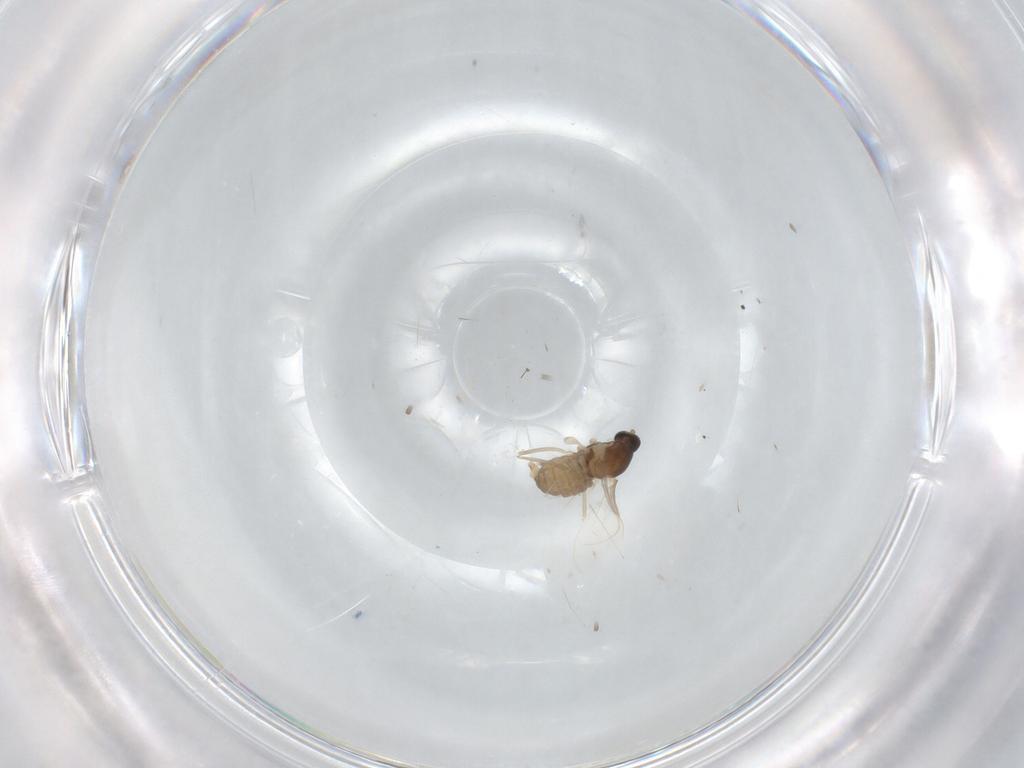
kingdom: Animalia
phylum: Arthropoda
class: Insecta
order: Diptera
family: Cecidomyiidae
